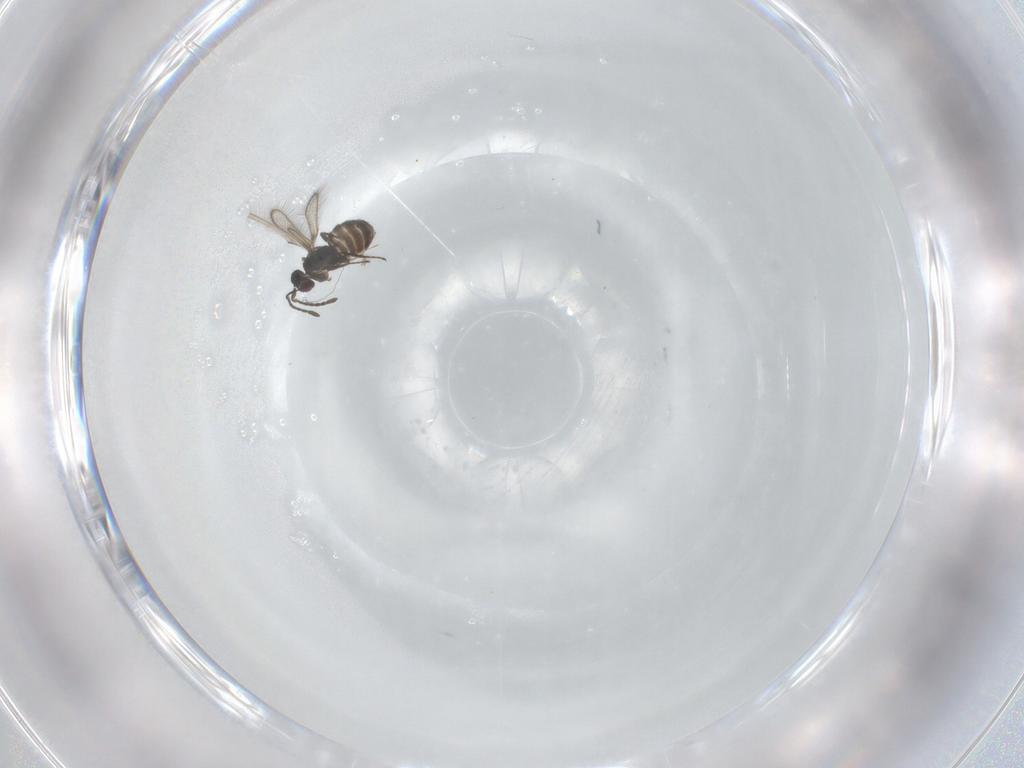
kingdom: Animalia
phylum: Arthropoda
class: Insecta
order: Hymenoptera
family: Mymaridae
